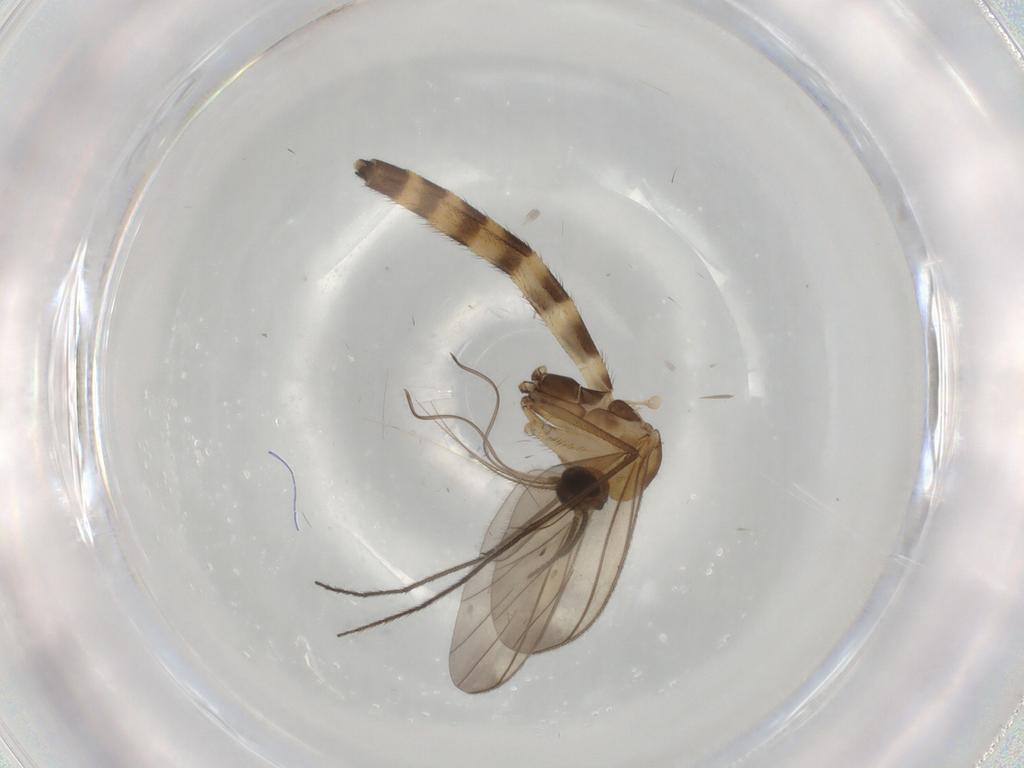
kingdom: Animalia
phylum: Arthropoda
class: Insecta
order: Diptera
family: Keroplatidae
